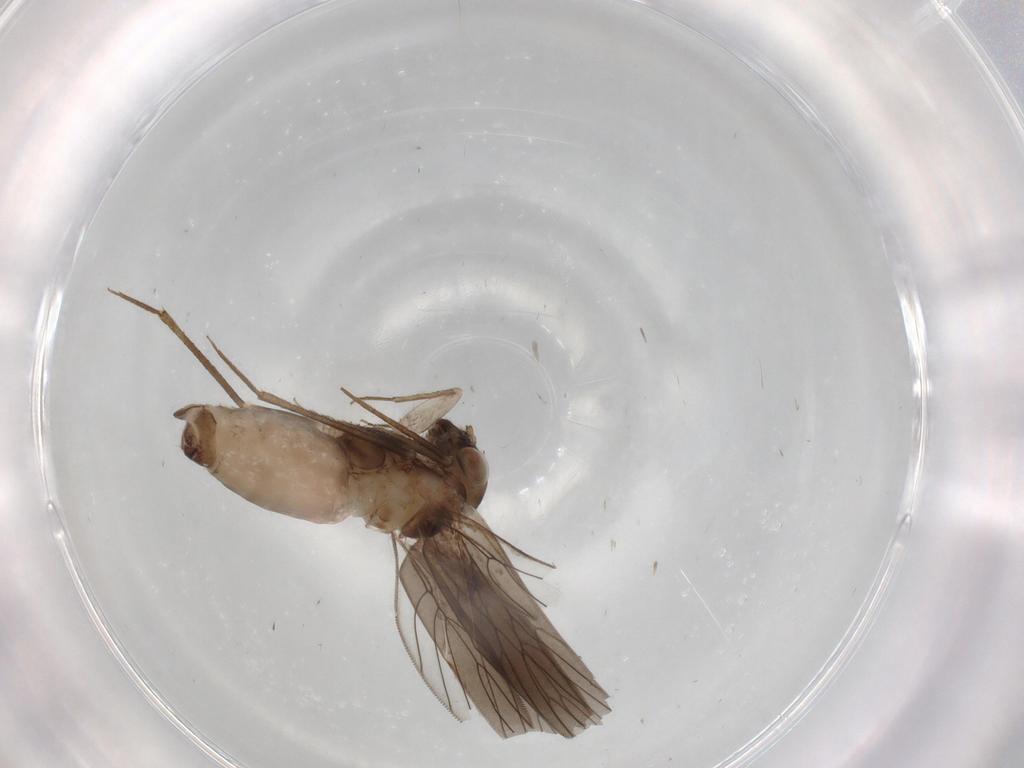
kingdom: Animalia
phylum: Arthropoda
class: Insecta
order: Psocodea
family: Lepidopsocidae
